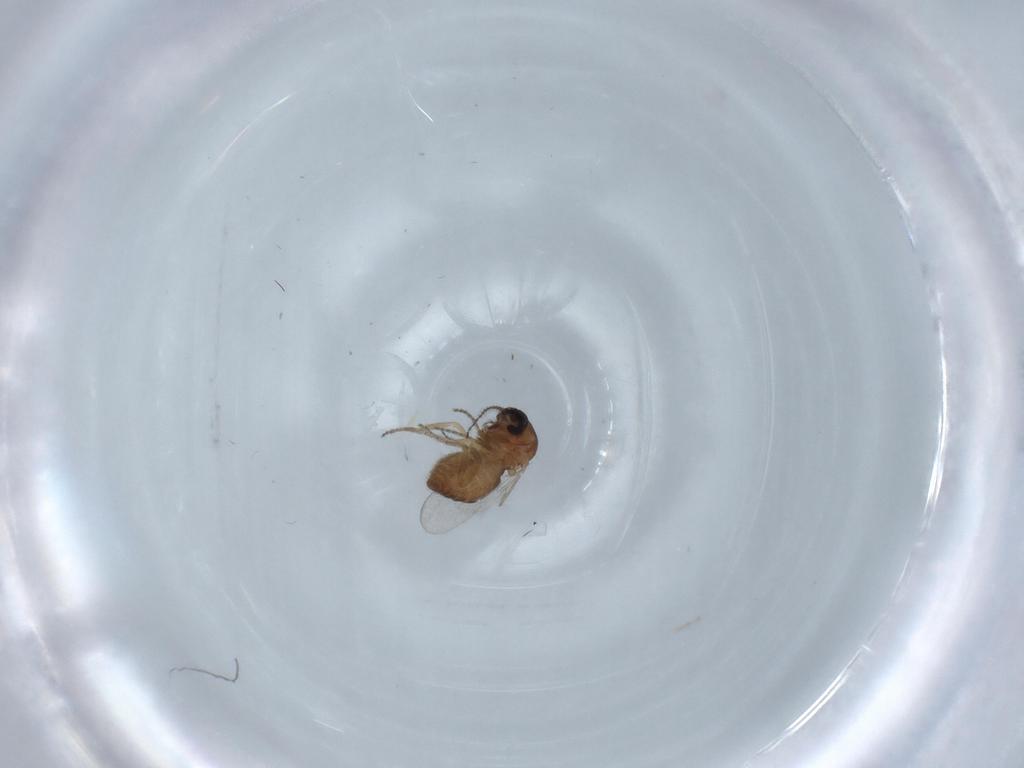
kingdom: Animalia
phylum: Arthropoda
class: Insecta
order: Diptera
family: Ceratopogonidae
